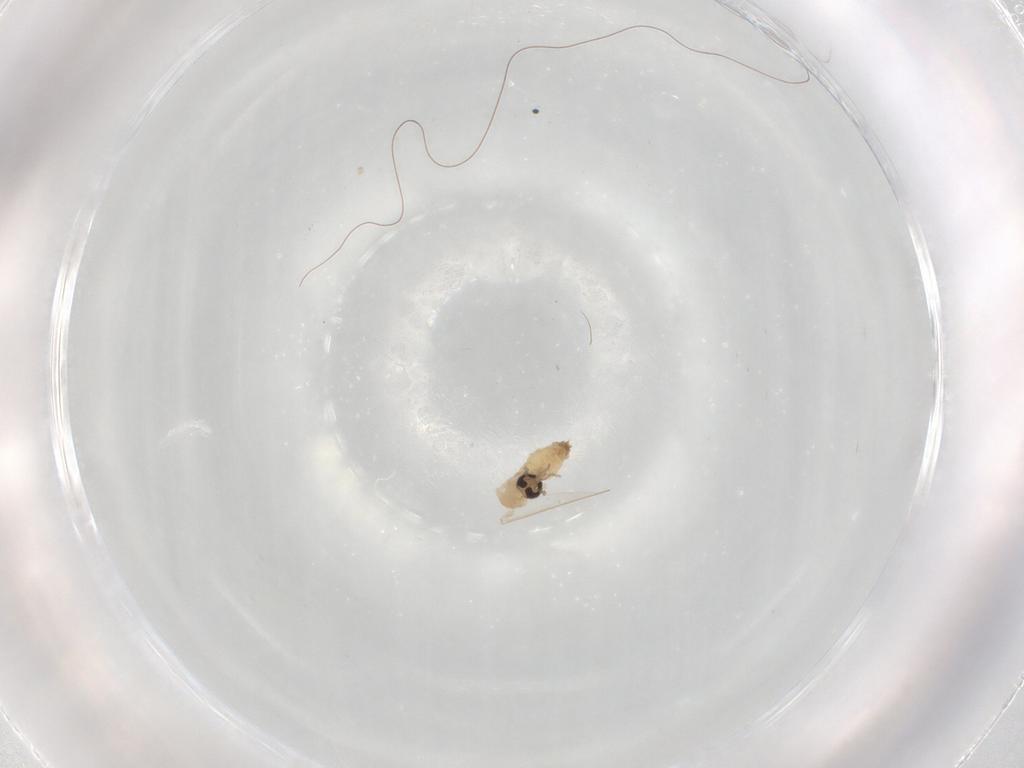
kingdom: Animalia
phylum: Arthropoda
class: Insecta
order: Diptera
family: Psychodidae
